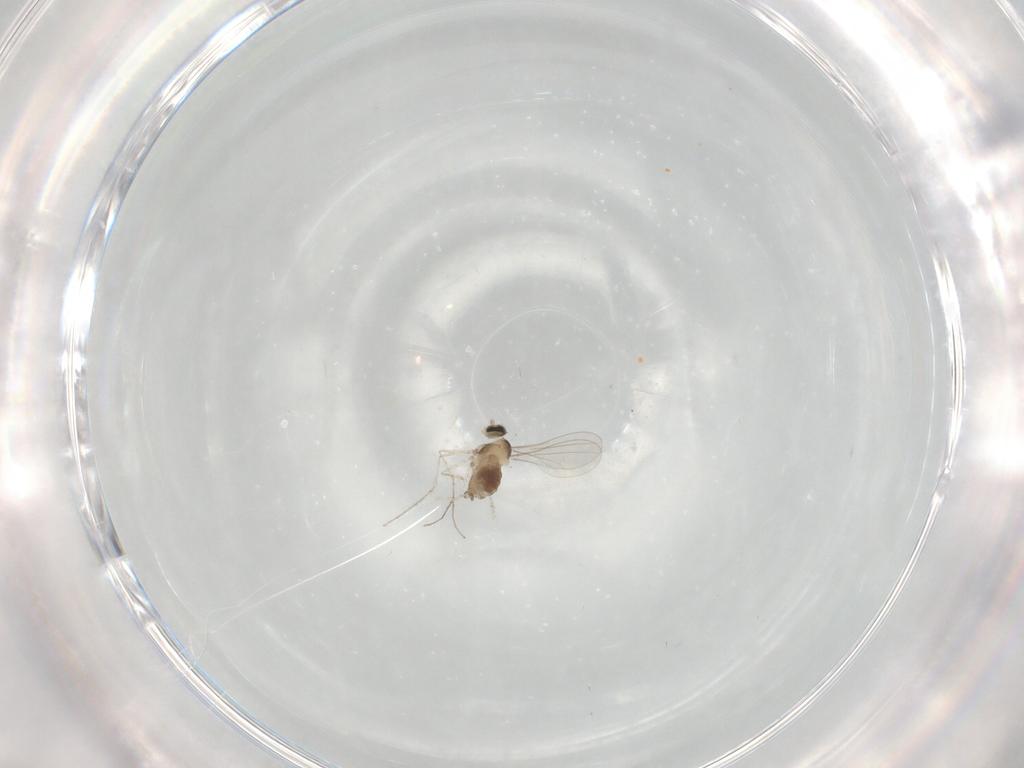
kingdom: Animalia
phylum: Arthropoda
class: Insecta
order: Diptera
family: Cecidomyiidae
